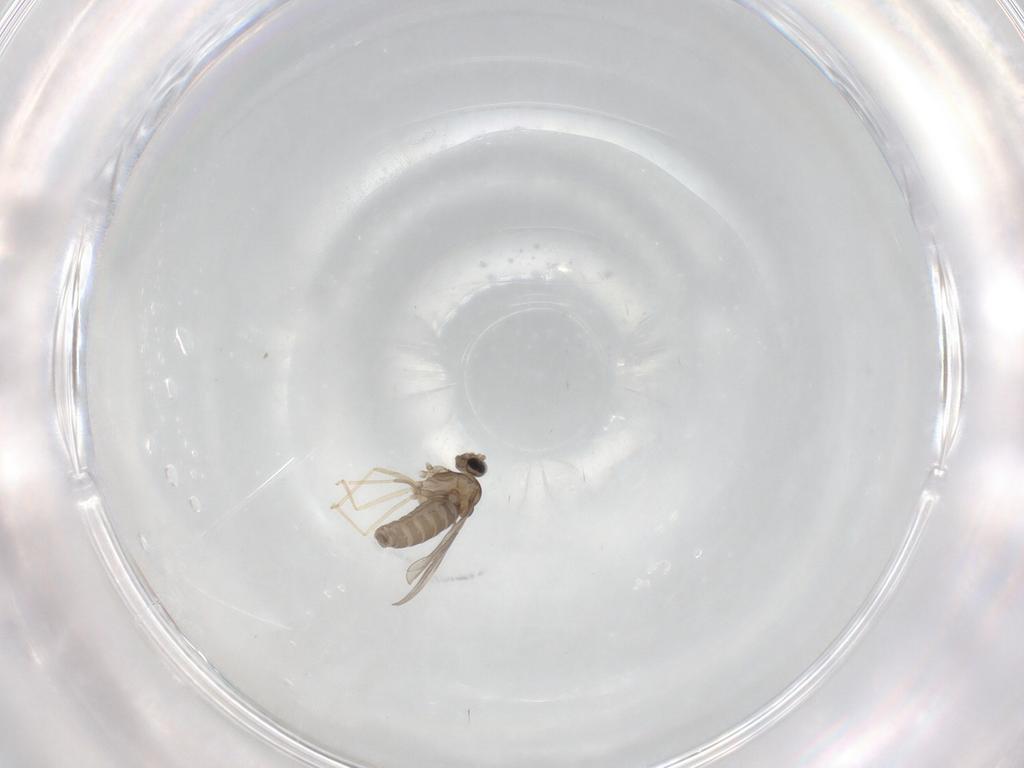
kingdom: Animalia
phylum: Arthropoda
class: Insecta
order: Diptera
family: Cecidomyiidae
